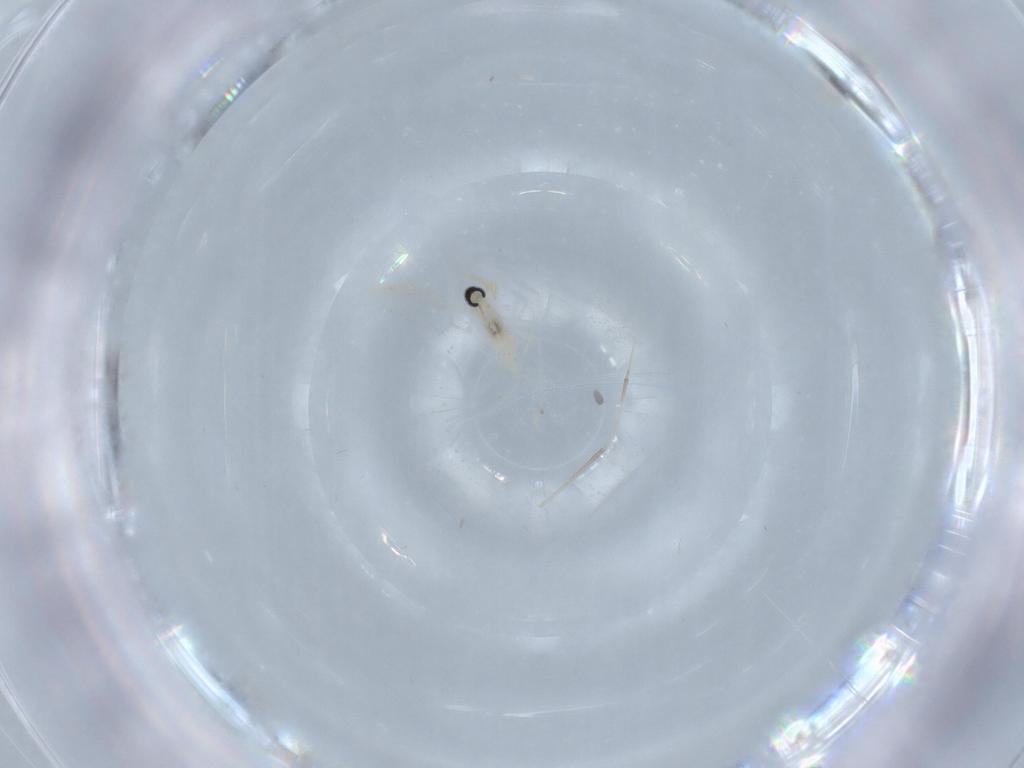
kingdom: Animalia
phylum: Arthropoda
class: Insecta
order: Diptera
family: Cecidomyiidae
